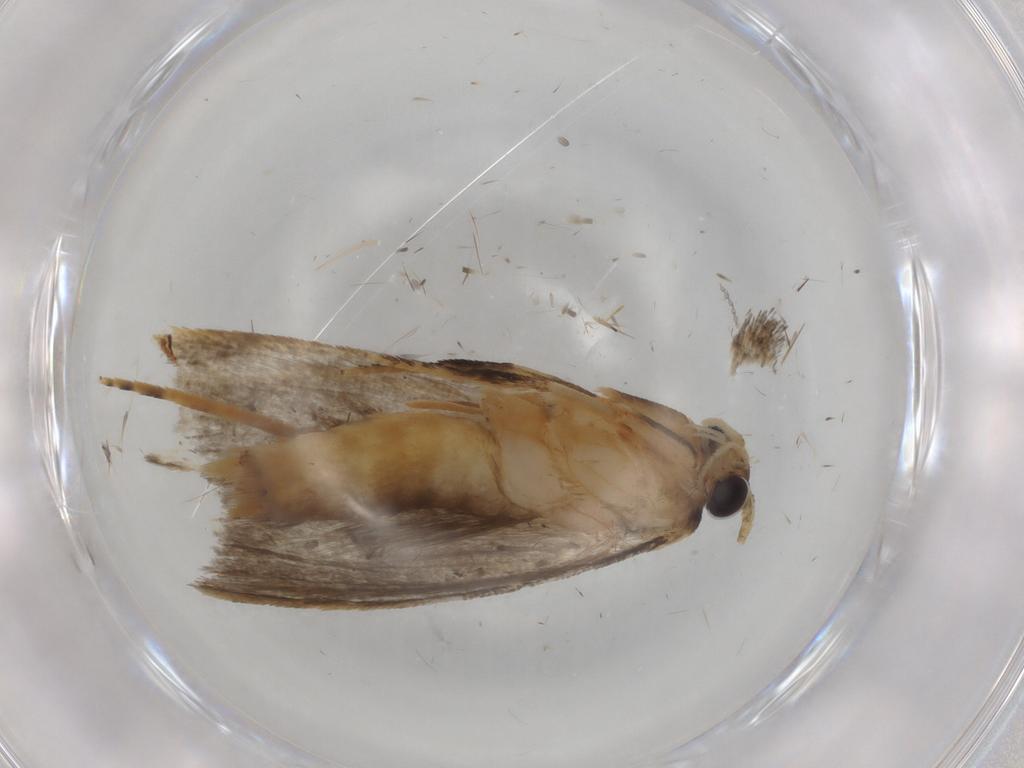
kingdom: Animalia
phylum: Arthropoda
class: Insecta
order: Lepidoptera
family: Tineidae
